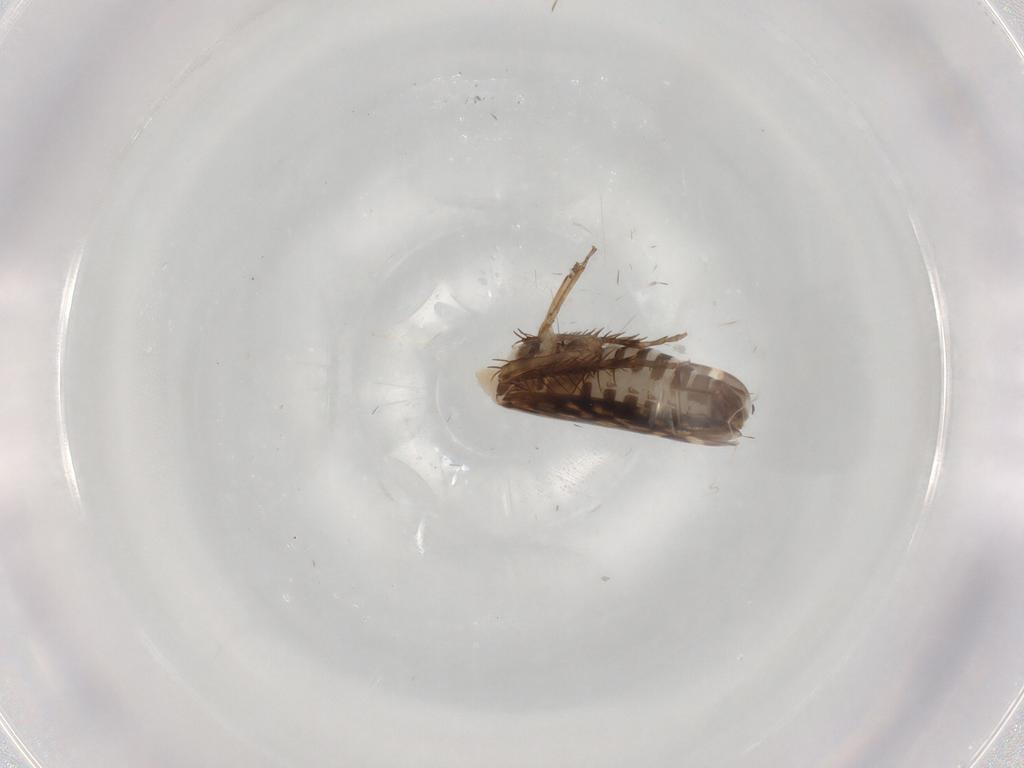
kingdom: Animalia
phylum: Arthropoda
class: Insecta
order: Hemiptera
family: Cicadellidae
